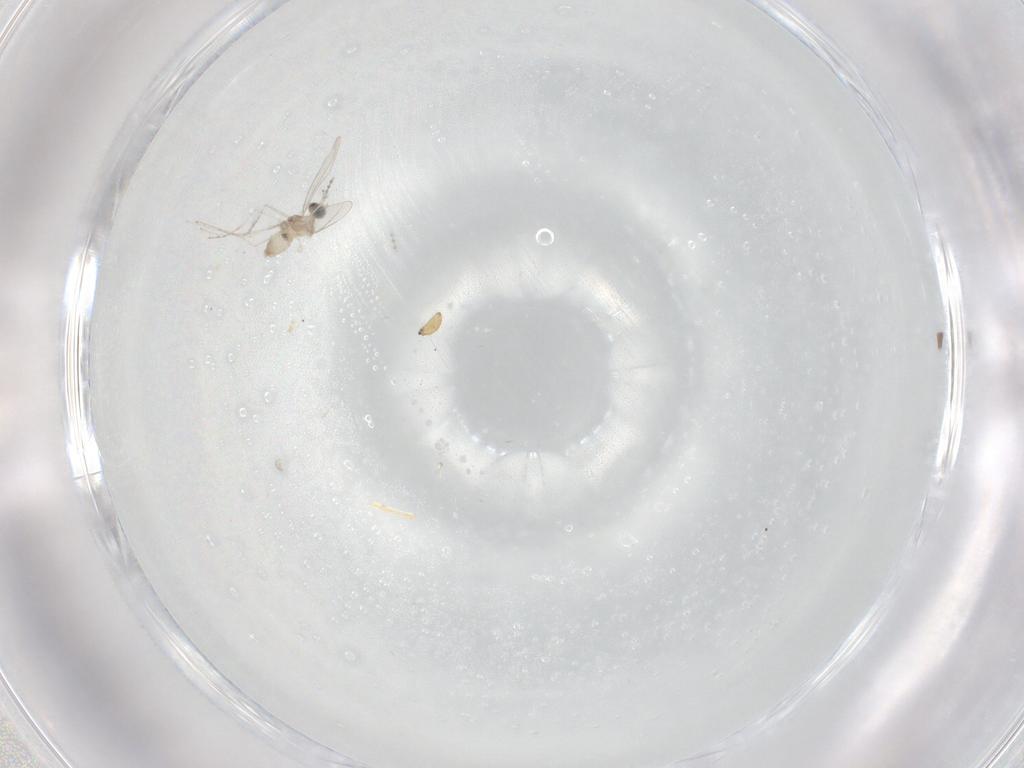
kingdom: Animalia
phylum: Arthropoda
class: Insecta
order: Diptera
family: Cecidomyiidae
